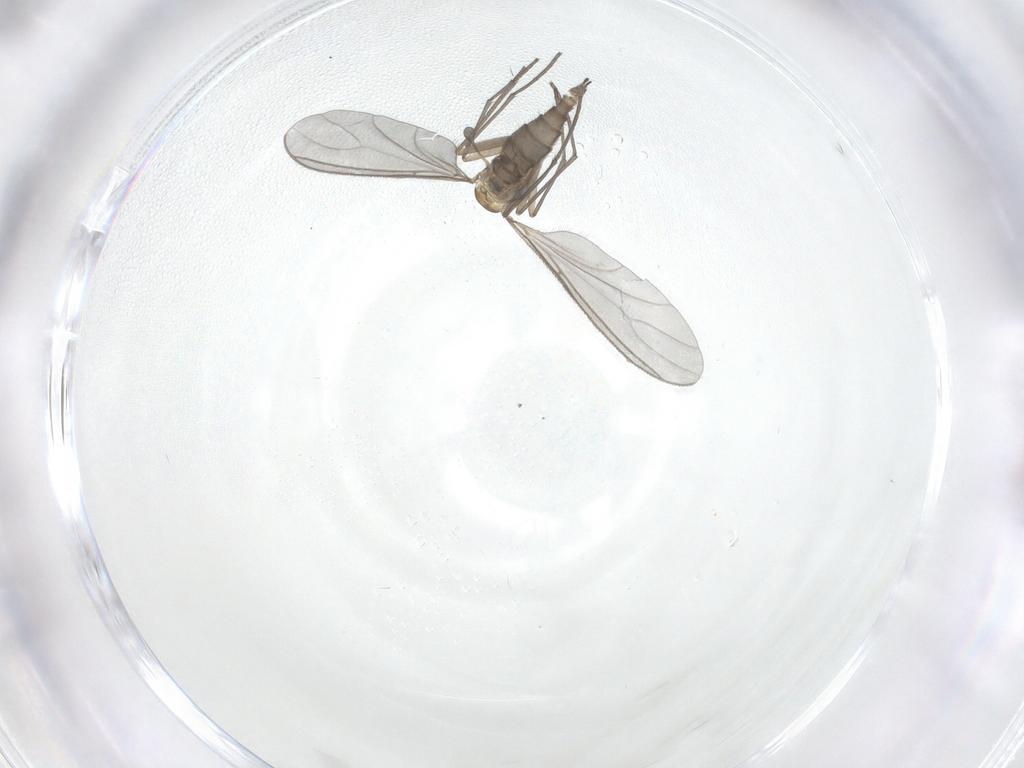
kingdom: Animalia
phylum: Arthropoda
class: Insecta
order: Diptera
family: Sciaridae
